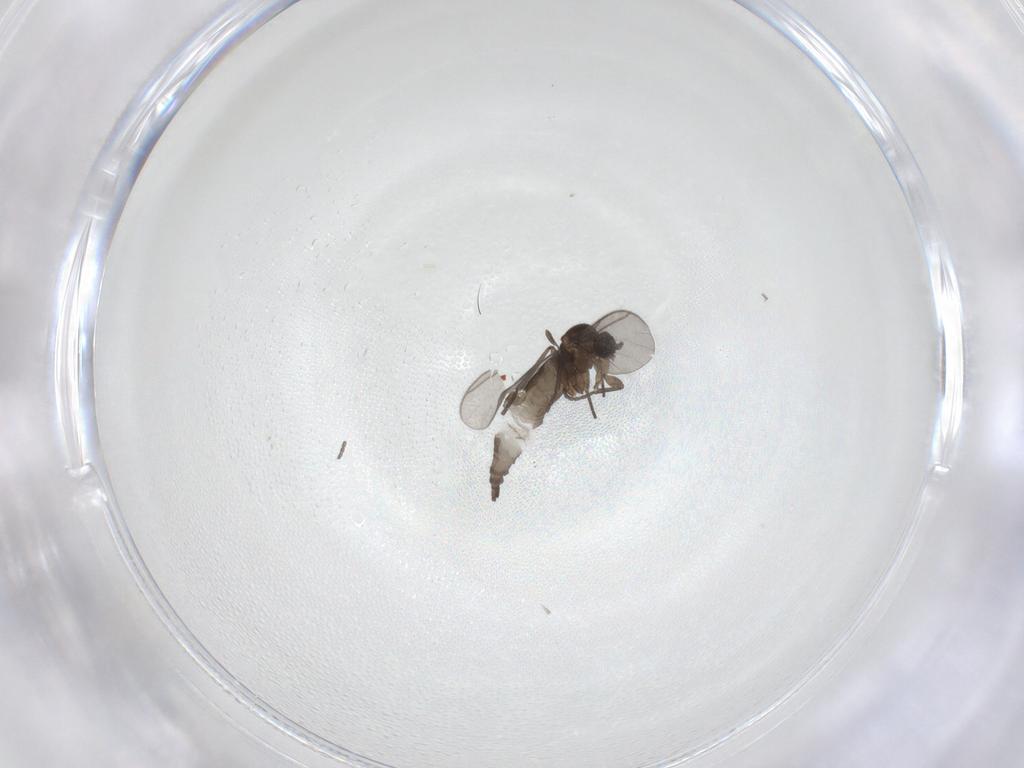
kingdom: Animalia
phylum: Arthropoda
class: Insecta
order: Diptera
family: Sciaridae
